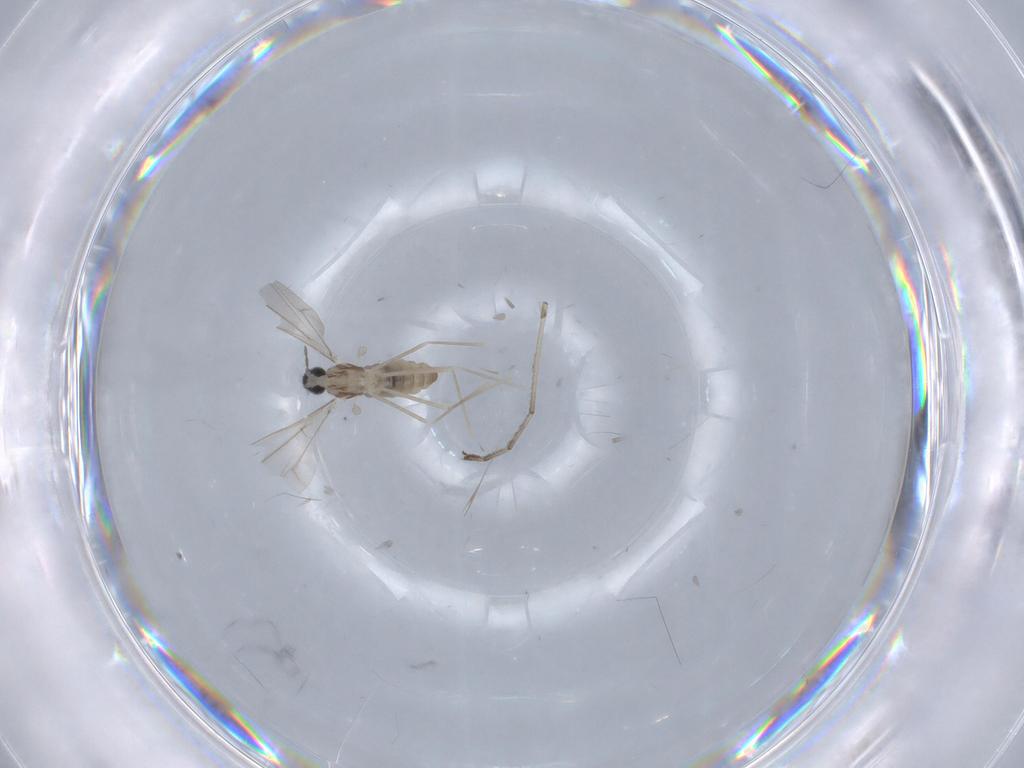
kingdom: Animalia
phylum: Arthropoda
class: Insecta
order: Diptera
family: Cecidomyiidae
